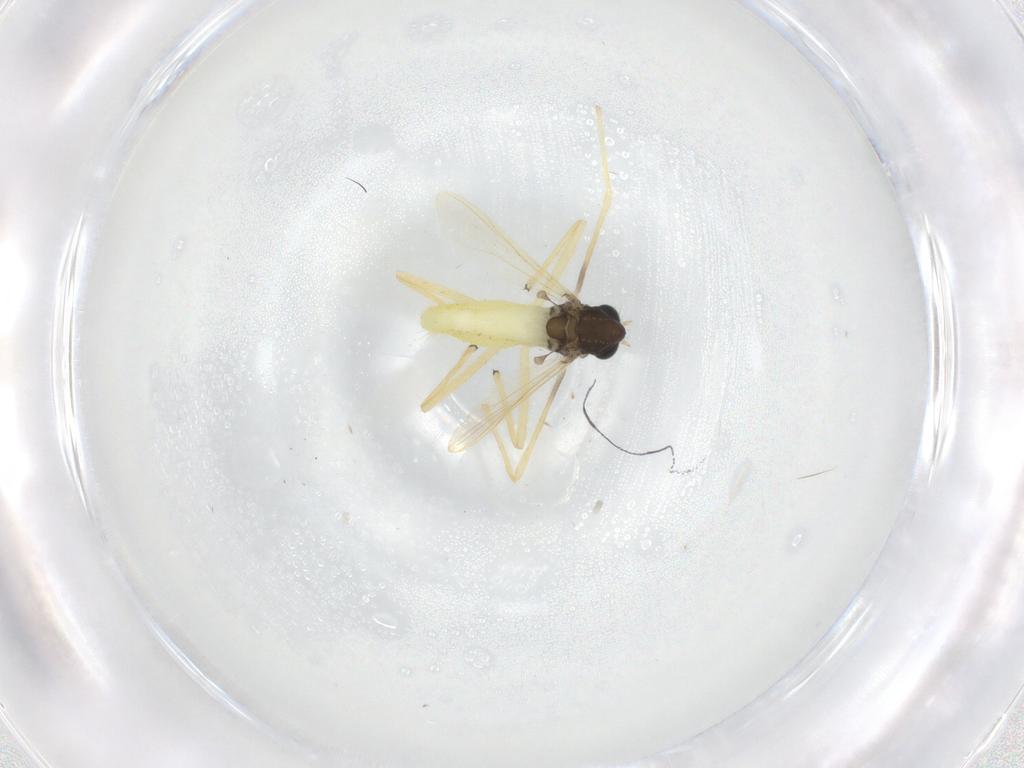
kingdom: Animalia
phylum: Arthropoda
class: Insecta
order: Diptera
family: Chironomidae
